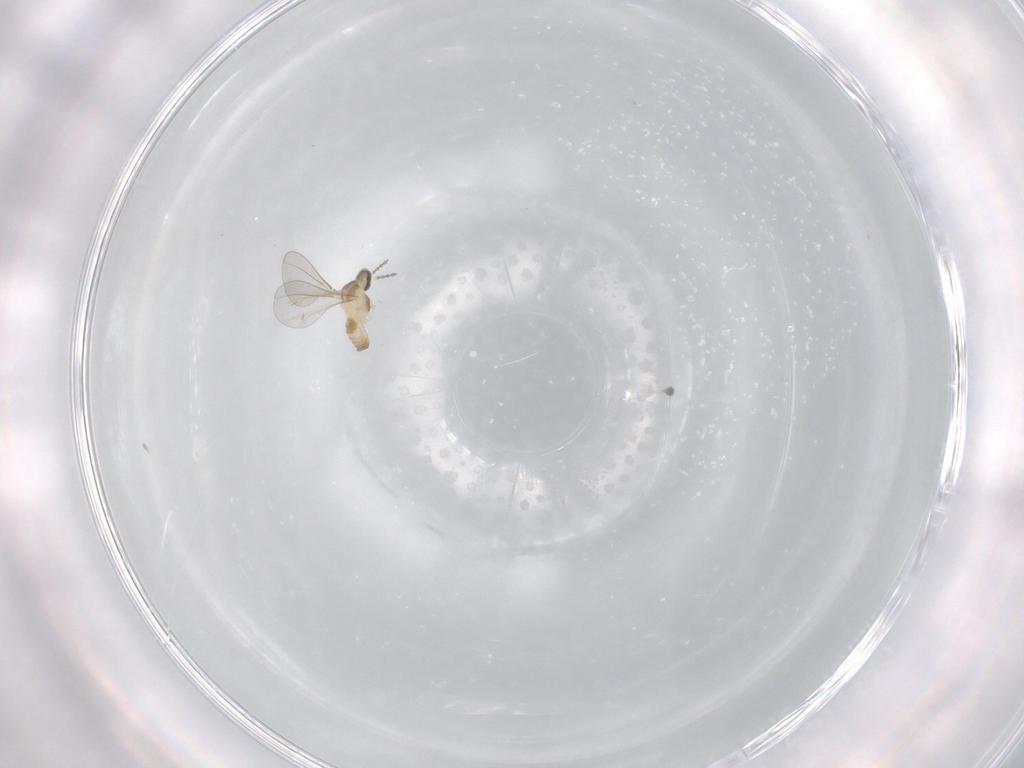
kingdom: Animalia
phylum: Arthropoda
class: Insecta
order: Diptera
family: Cecidomyiidae
